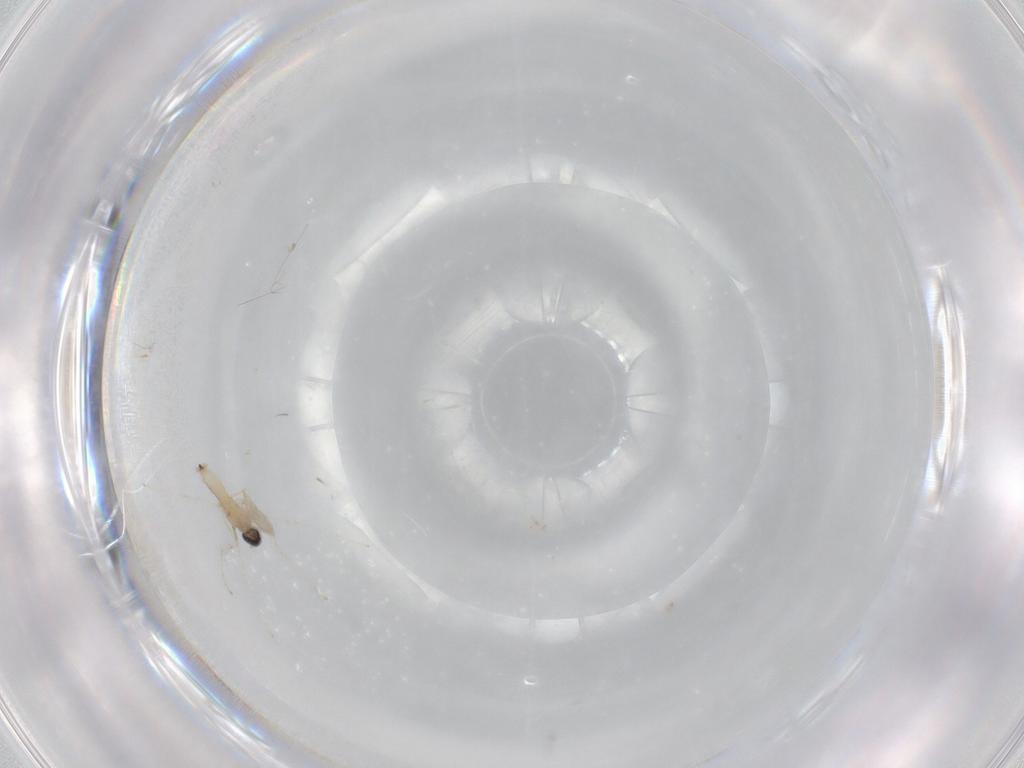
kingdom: Animalia
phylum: Arthropoda
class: Insecta
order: Diptera
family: Cecidomyiidae
